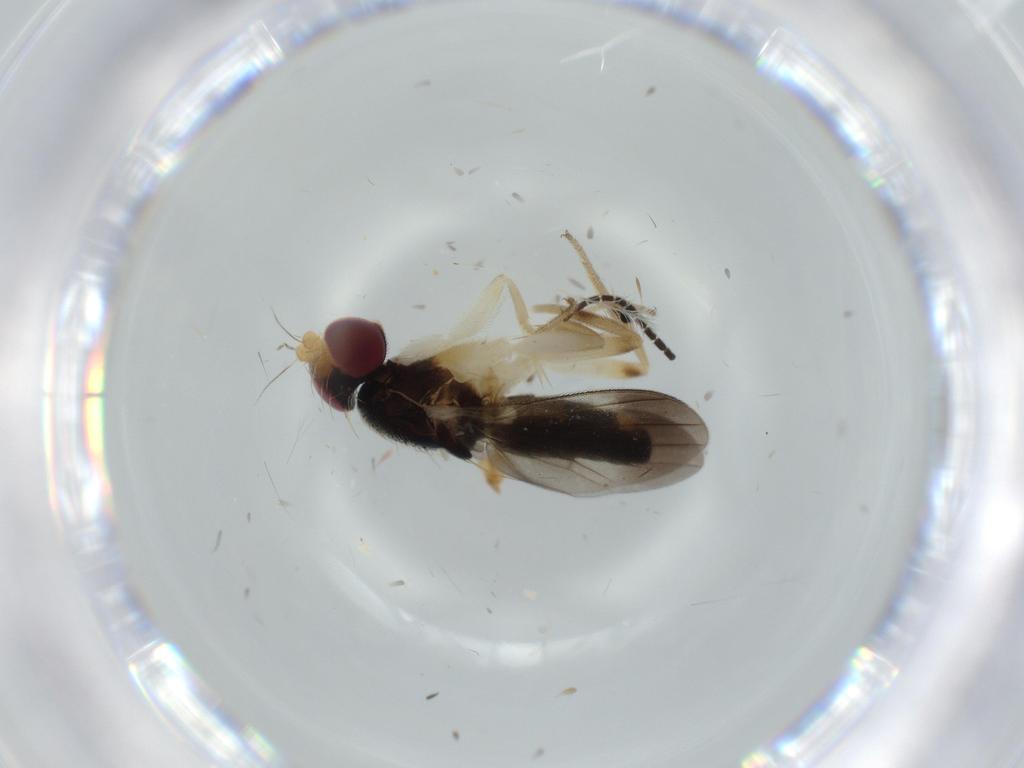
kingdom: Animalia
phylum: Arthropoda
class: Insecta
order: Diptera
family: Clusiidae
